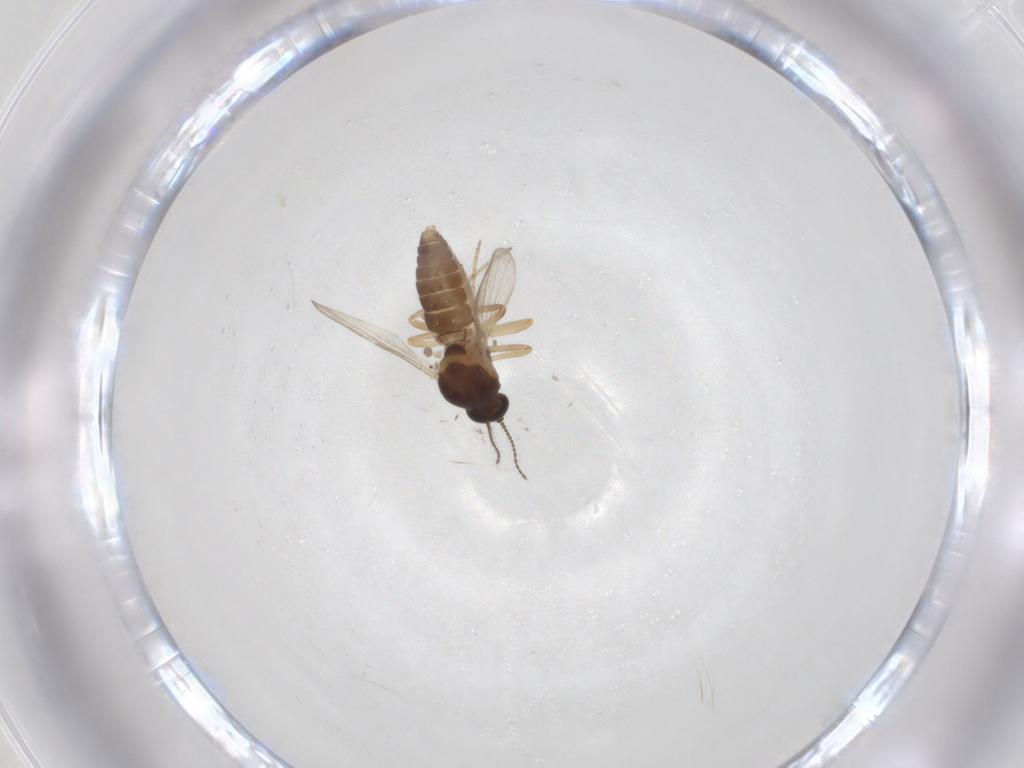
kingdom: Animalia
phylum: Arthropoda
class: Insecta
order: Diptera
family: Ceratopogonidae
